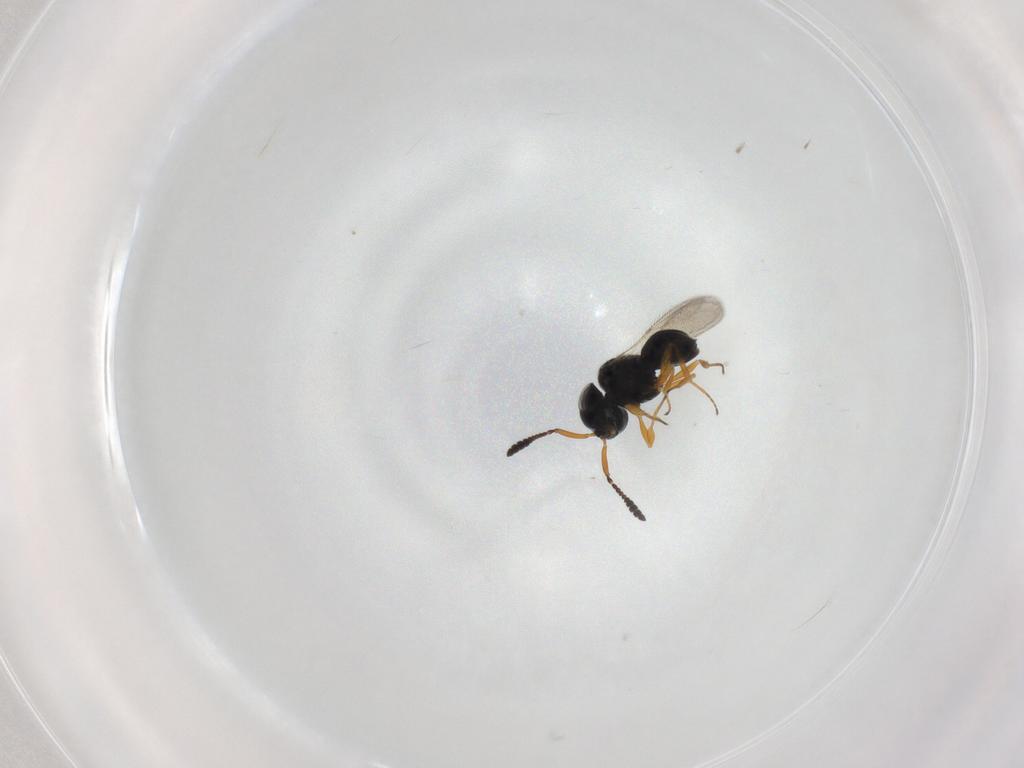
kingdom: Animalia
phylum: Arthropoda
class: Insecta
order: Hymenoptera
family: Scelionidae
